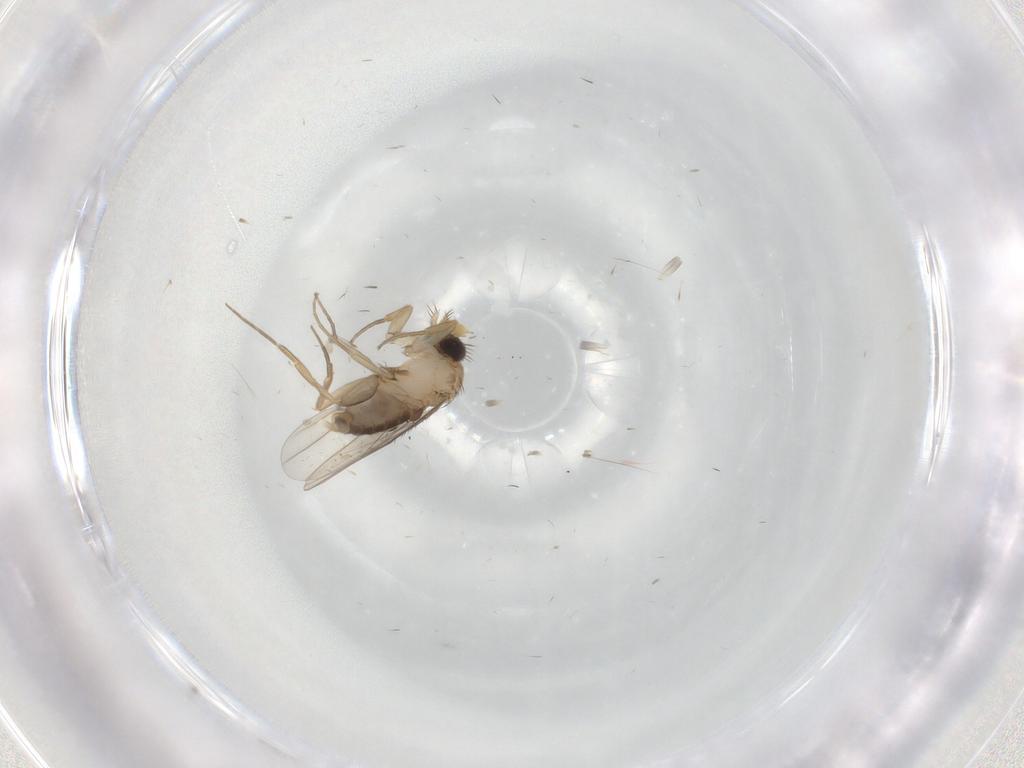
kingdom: Animalia
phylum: Arthropoda
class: Insecta
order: Diptera
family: Phoridae
